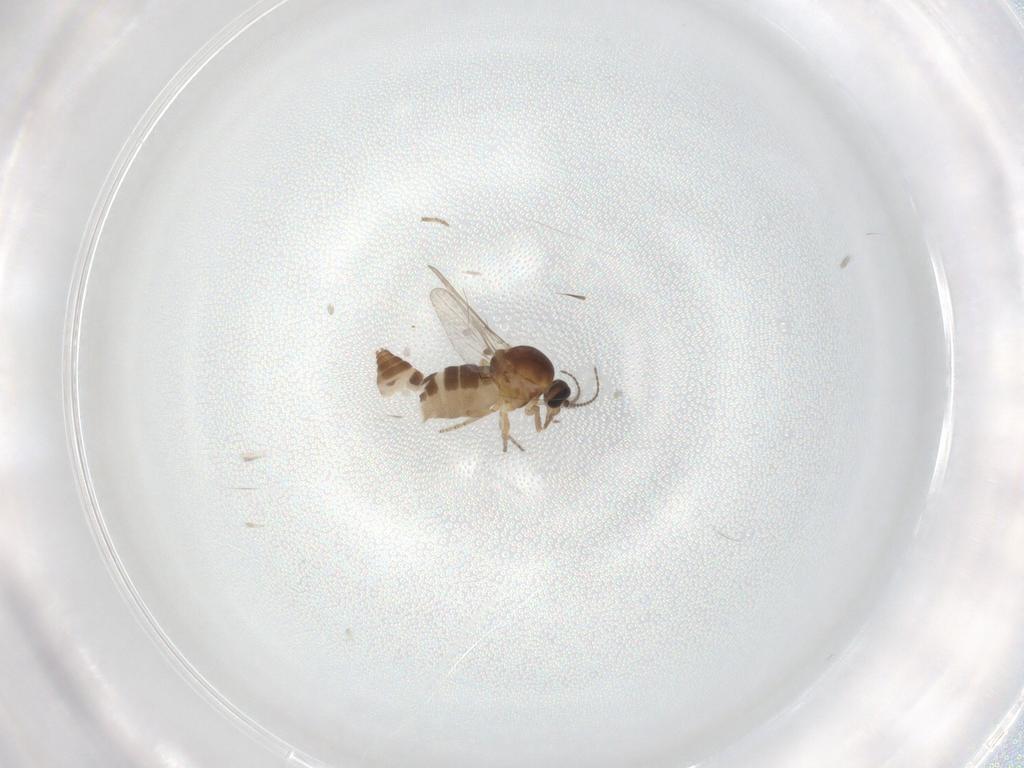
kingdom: Animalia
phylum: Arthropoda
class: Insecta
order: Diptera
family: Ceratopogonidae
